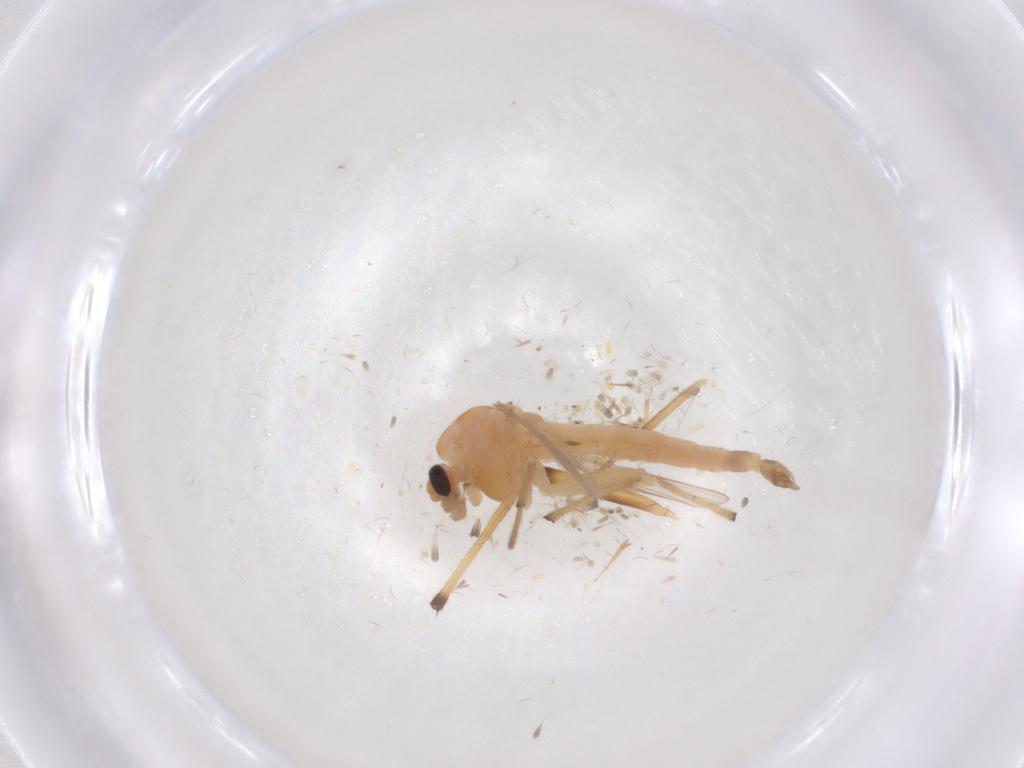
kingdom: Animalia
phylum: Arthropoda
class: Insecta
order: Diptera
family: Chironomidae
